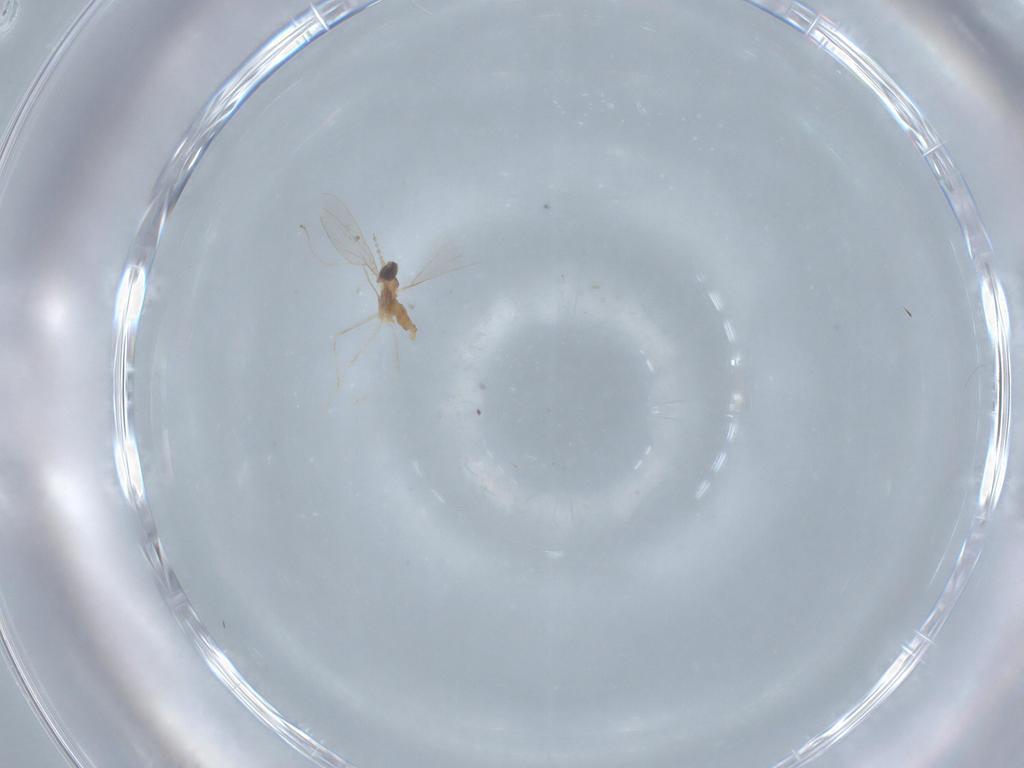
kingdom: Animalia
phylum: Arthropoda
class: Insecta
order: Diptera
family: Cecidomyiidae
